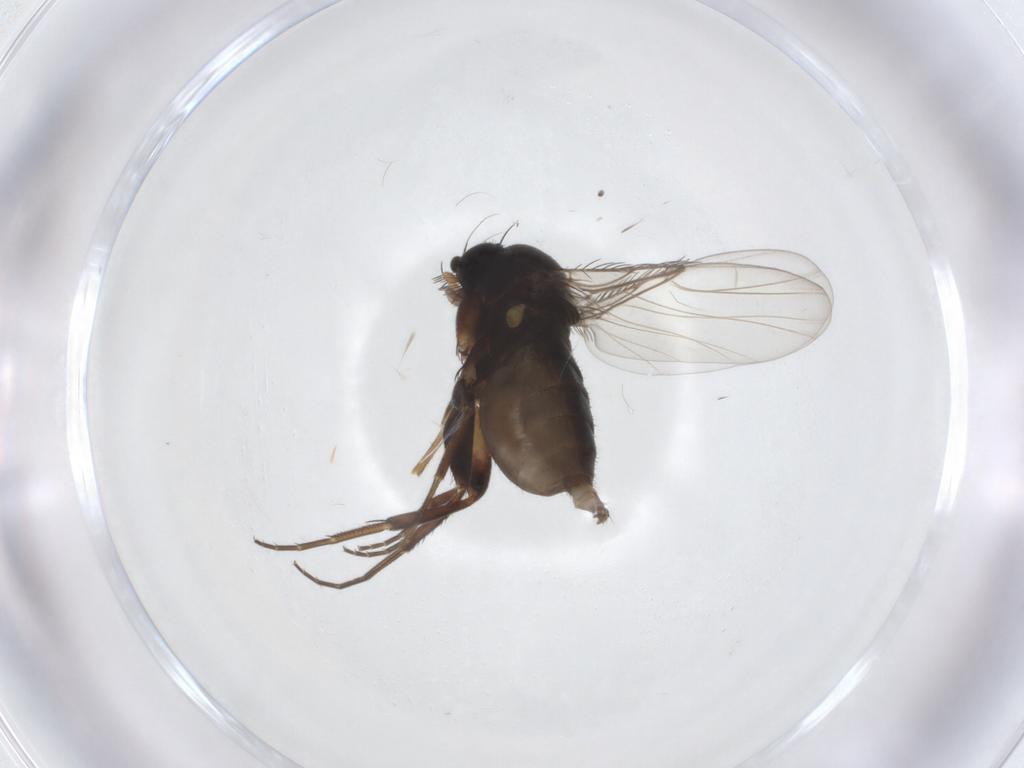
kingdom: Animalia
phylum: Arthropoda
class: Insecta
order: Diptera
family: Phoridae
